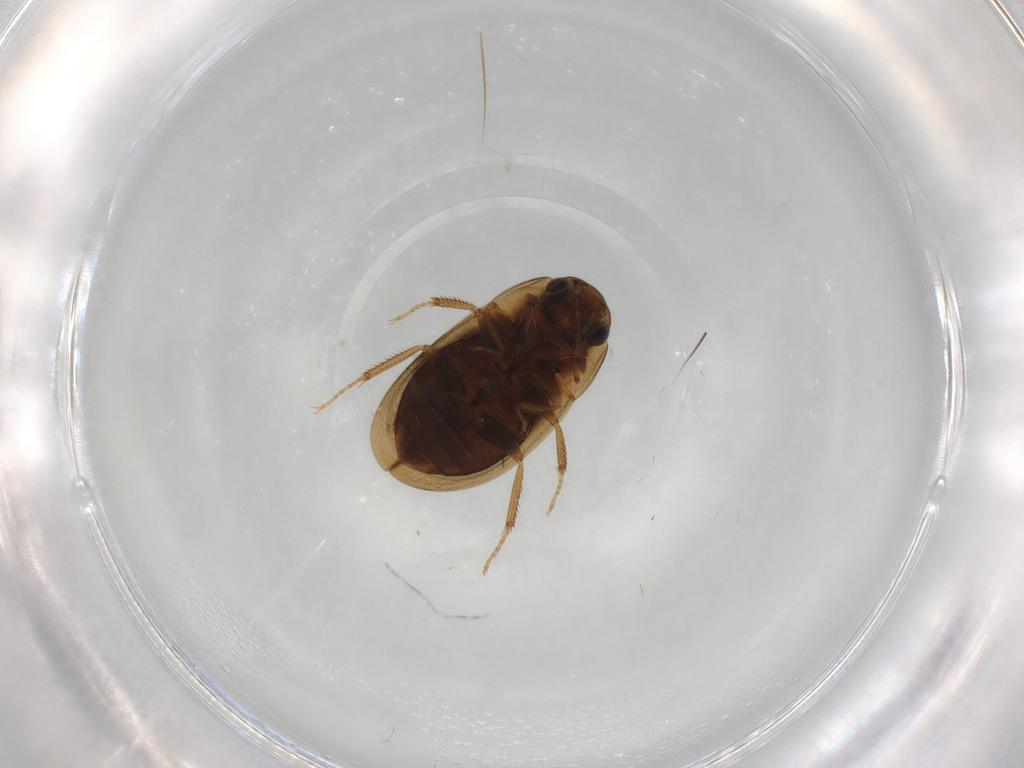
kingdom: Animalia
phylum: Arthropoda
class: Insecta
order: Coleoptera
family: Hydrophilidae
